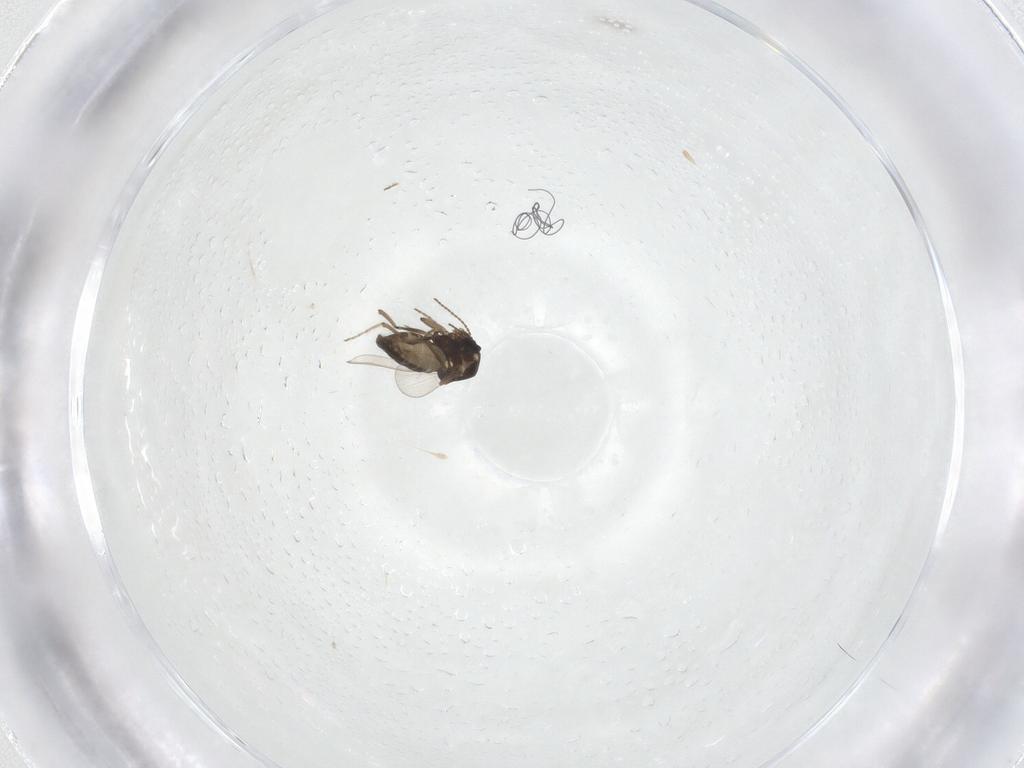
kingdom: Animalia
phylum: Arthropoda
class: Insecta
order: Diptera
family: Ceratopogonidae
